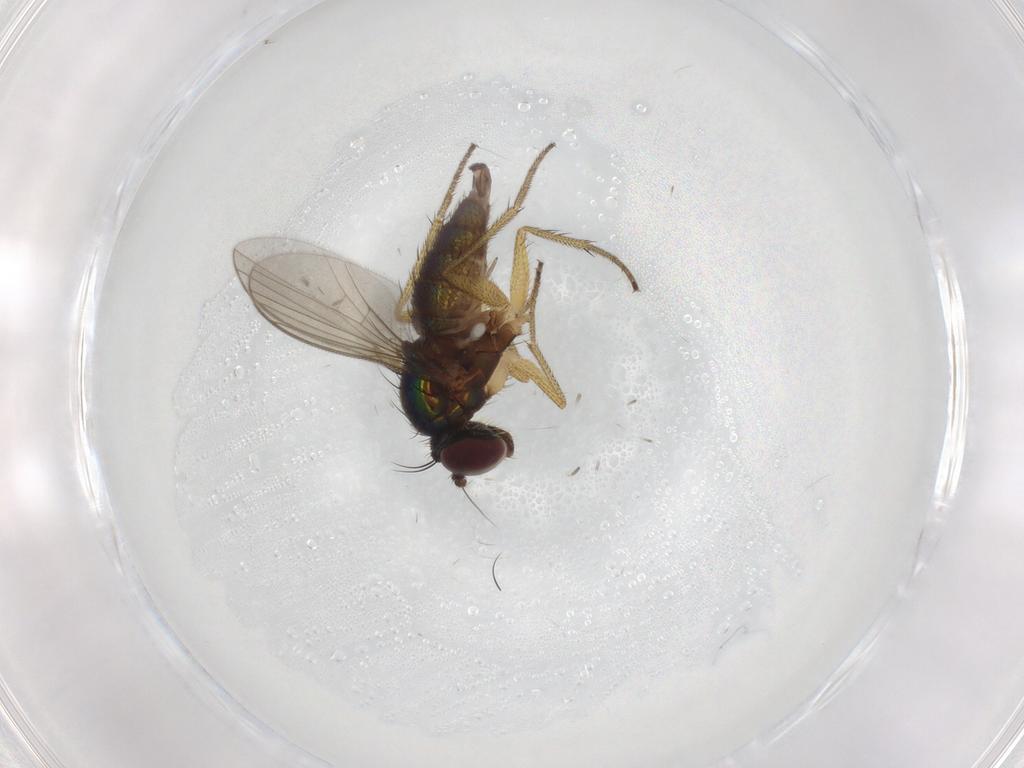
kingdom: Animalia
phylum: Arthropoda
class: Insecta
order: Diptera
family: Dolichopodidae
